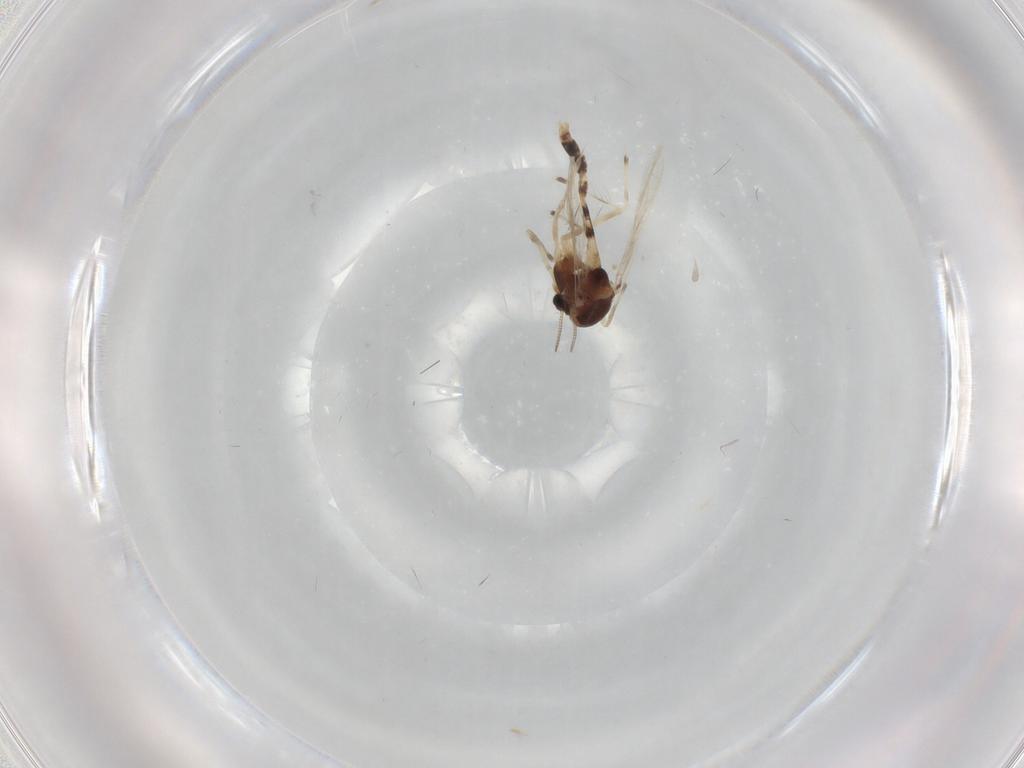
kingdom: Animalia
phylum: Arthropoda
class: Insecta
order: Diptera
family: Chironomidae
